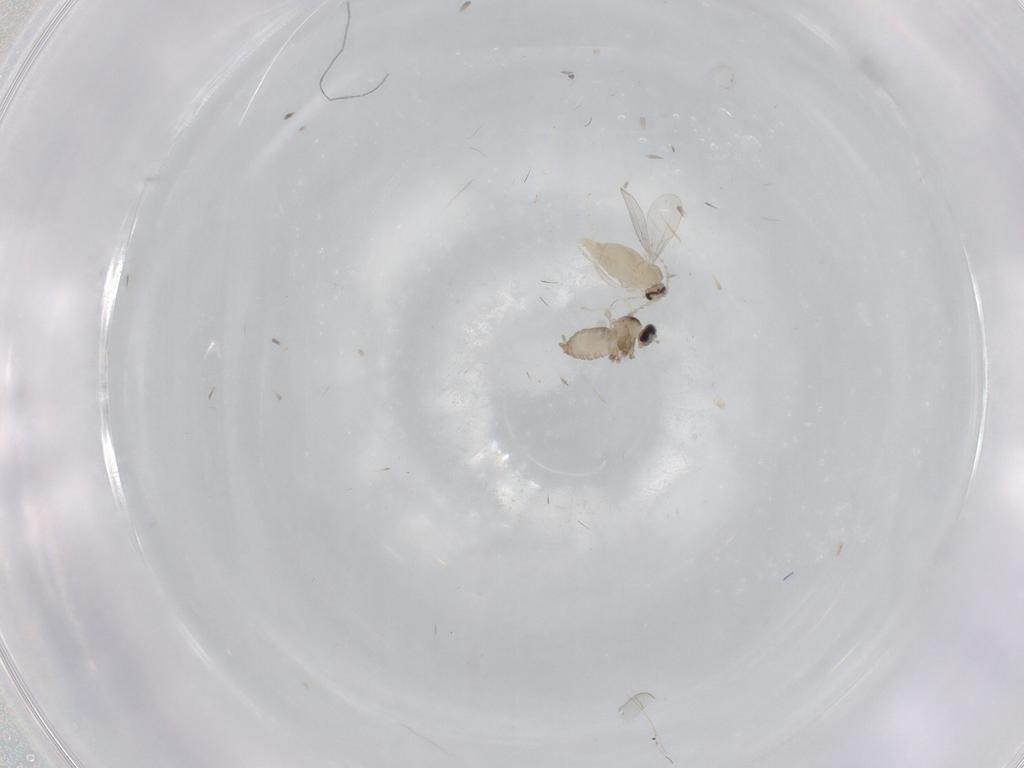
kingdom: Animalia
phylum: Arthropoda
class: Insecta
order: Diptera
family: Cecidomyiidae
